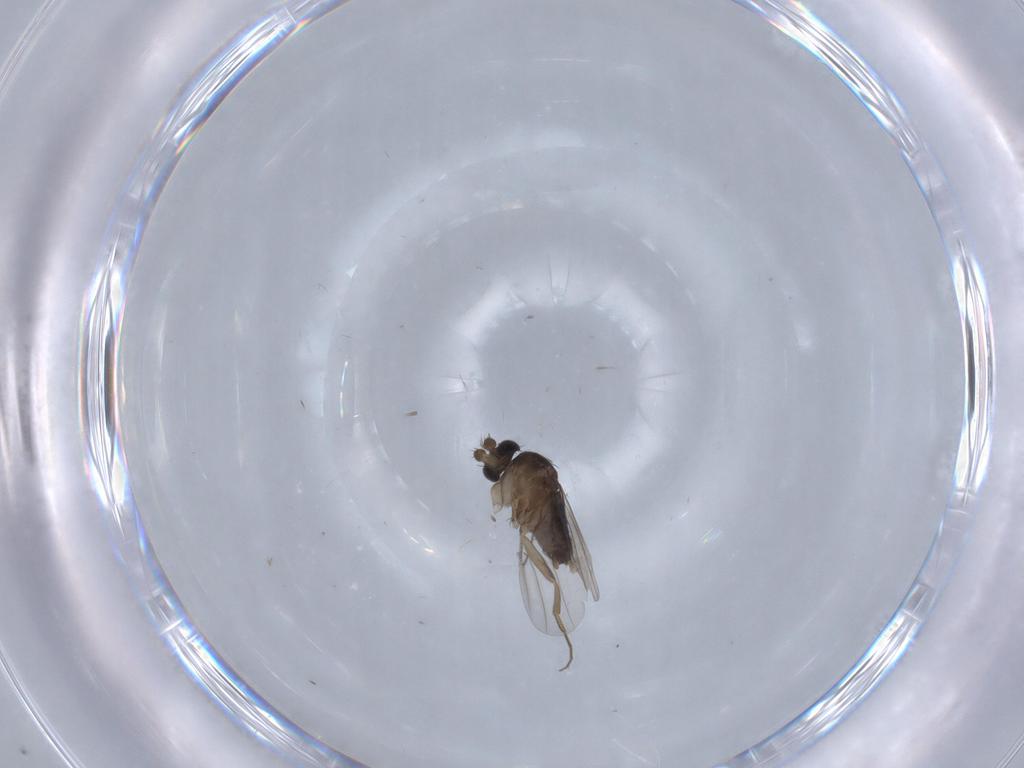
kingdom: Animalia
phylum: Arthropoda
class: Insecta
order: Diptera
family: Phoridae
